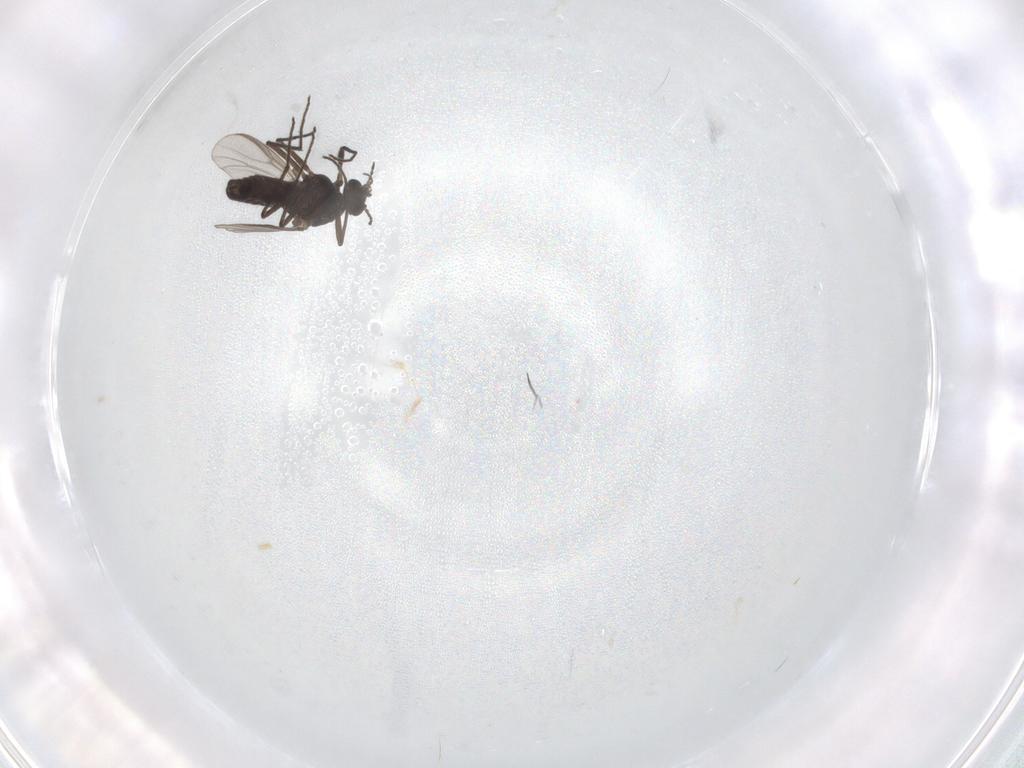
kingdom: Animalia
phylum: Arthropoda
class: Insecta
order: Diptera
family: Chironomidae
